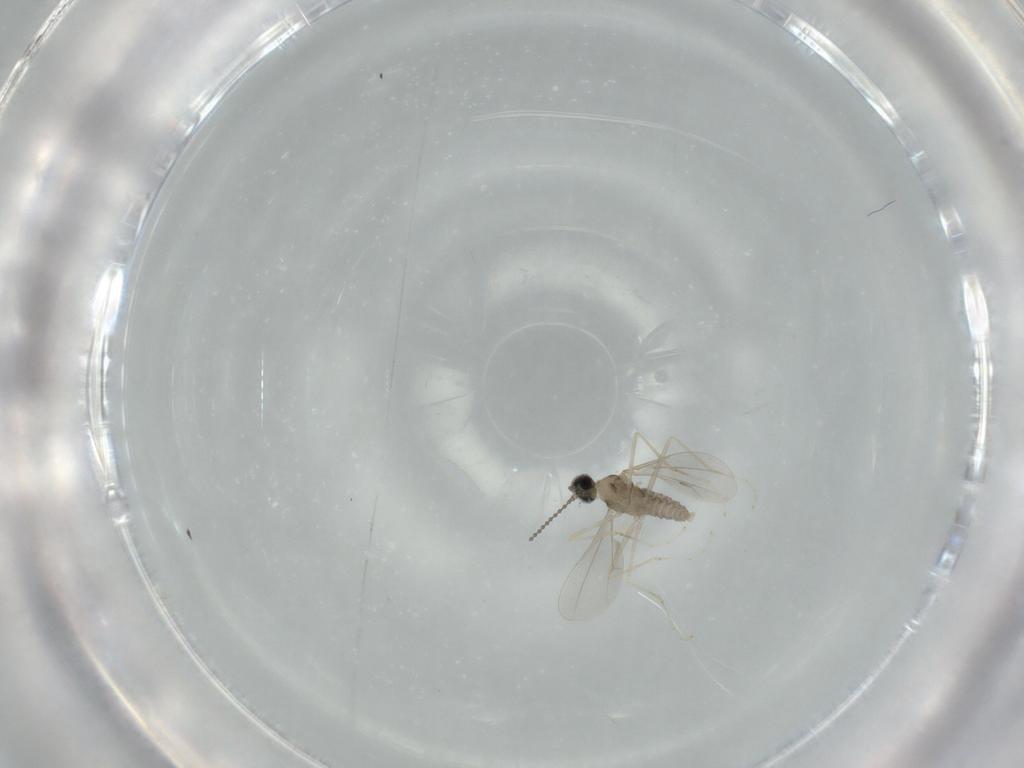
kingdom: Animalia
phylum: Arthropoda
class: Insecta
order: Diptera
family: Cecidomyiidae
